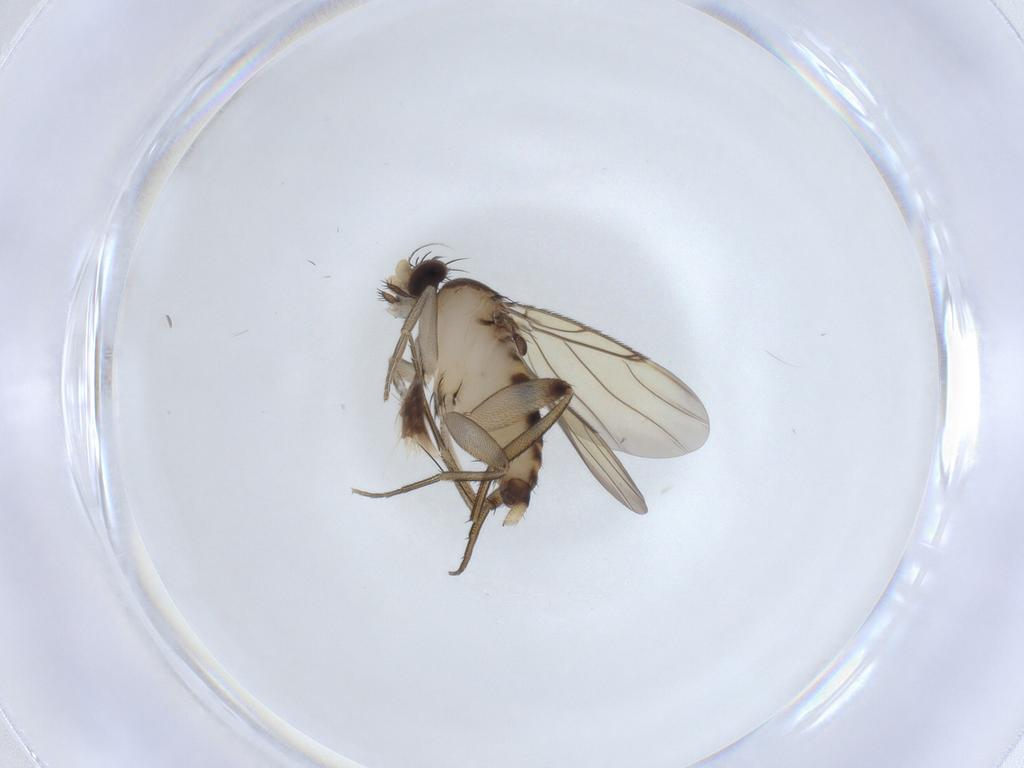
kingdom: Animalia
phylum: Arthropoda
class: Insecta
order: Diptera
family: Phoridae
